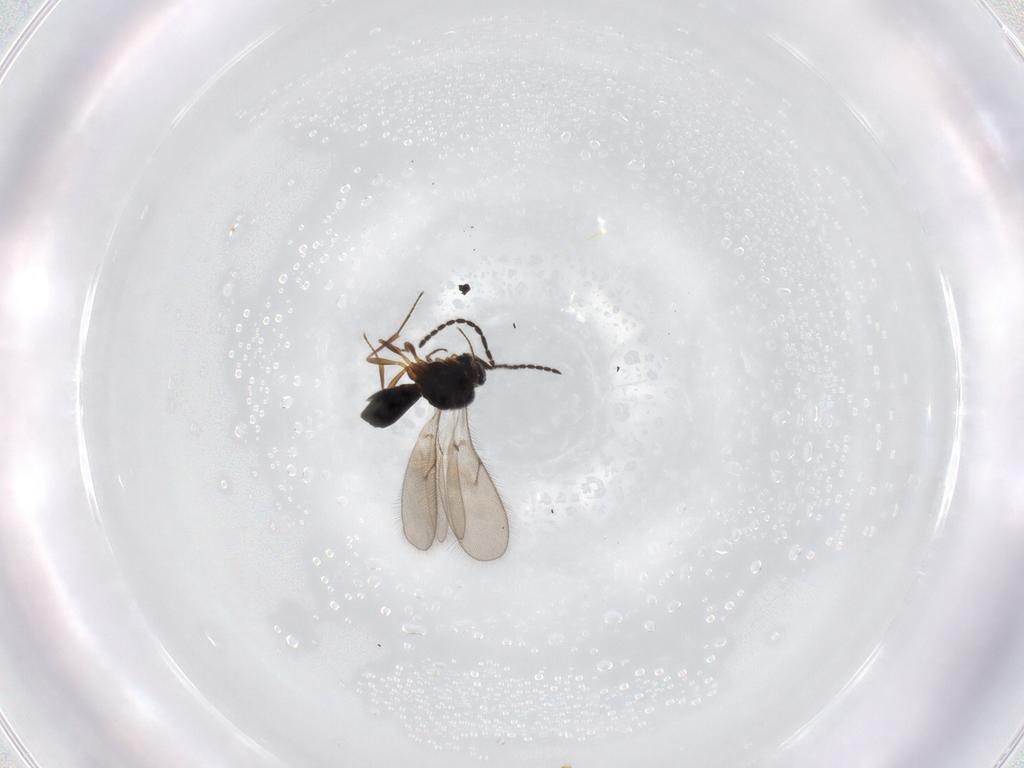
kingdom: Animalia
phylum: Arthropoda
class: Insecta
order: Hymenoptera
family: Scelionidae
